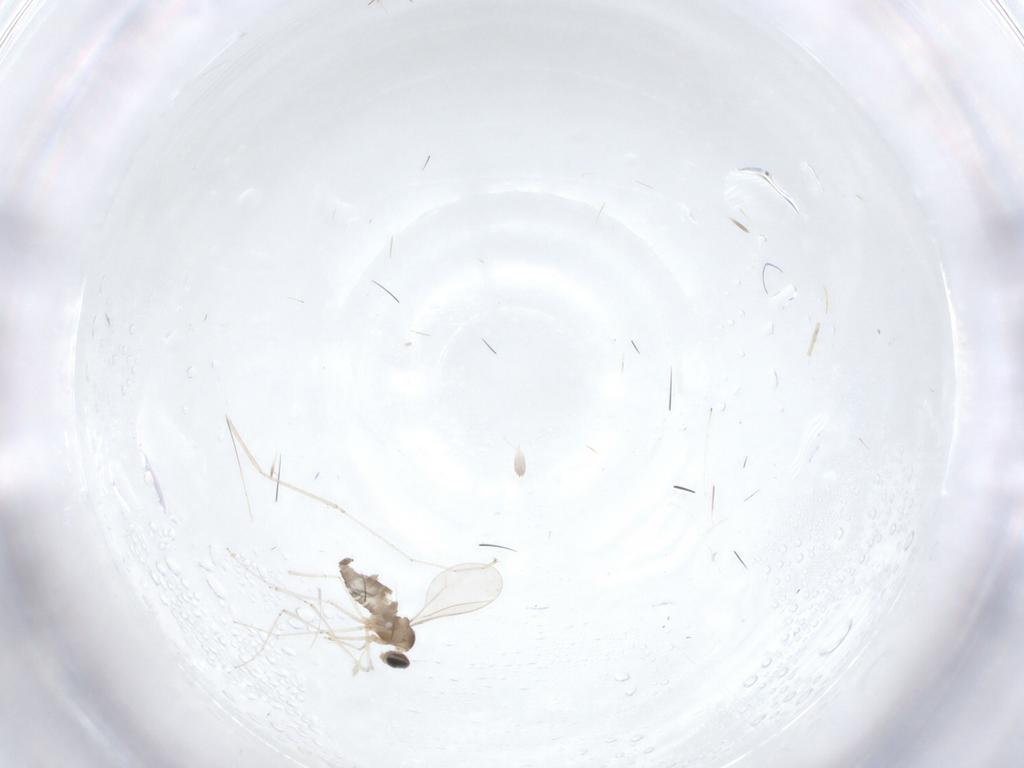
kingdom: Animalia
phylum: Arthropoda
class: Insecta
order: Diptera
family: Cecidomyiidae
